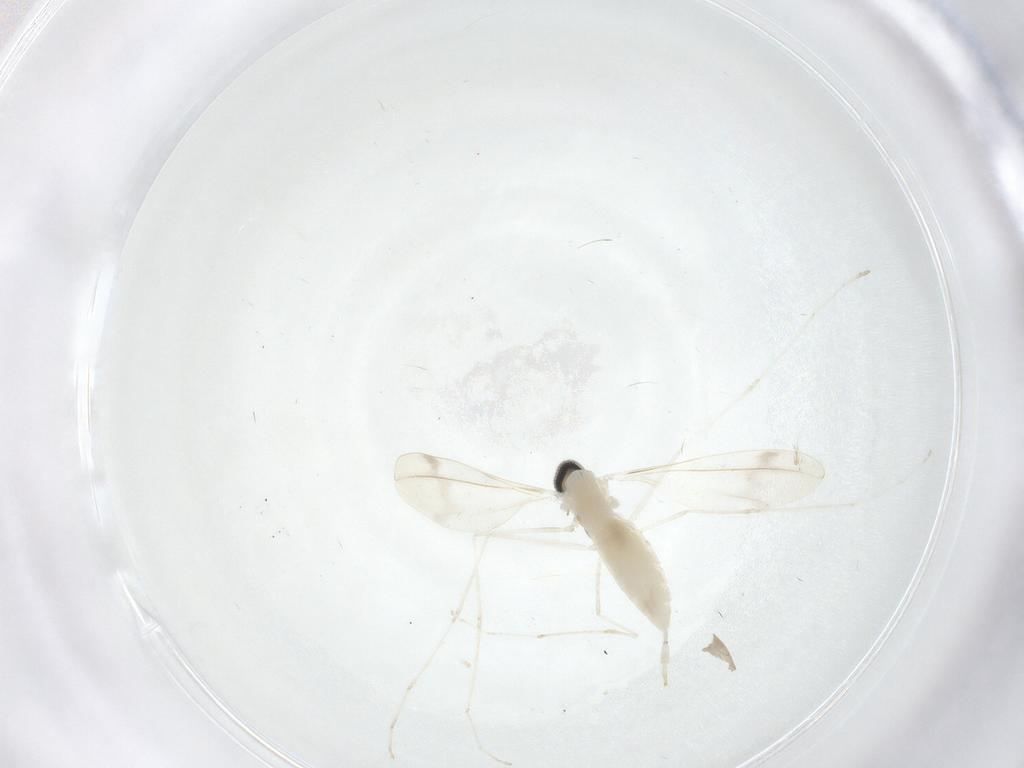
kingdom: Animalia
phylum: Arthropoda
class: Insecta
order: Diptera
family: Cecidomyiidae
